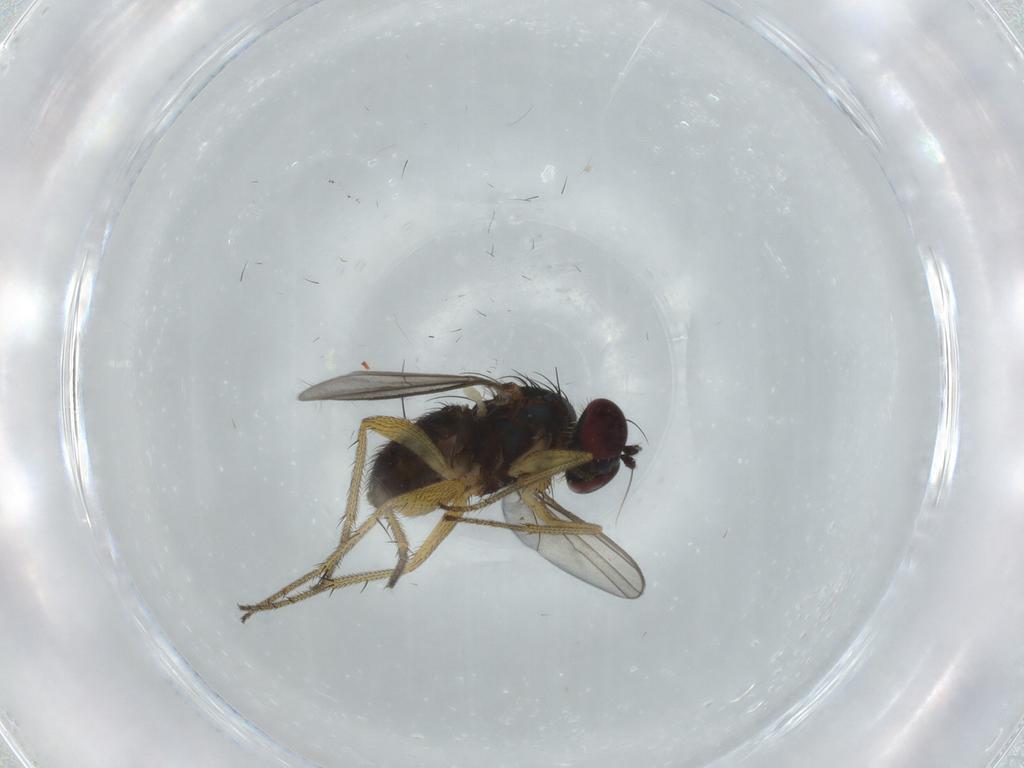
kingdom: Animalia
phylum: Arthropoda
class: Insecta
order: Diptera
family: Dolichopodidae
